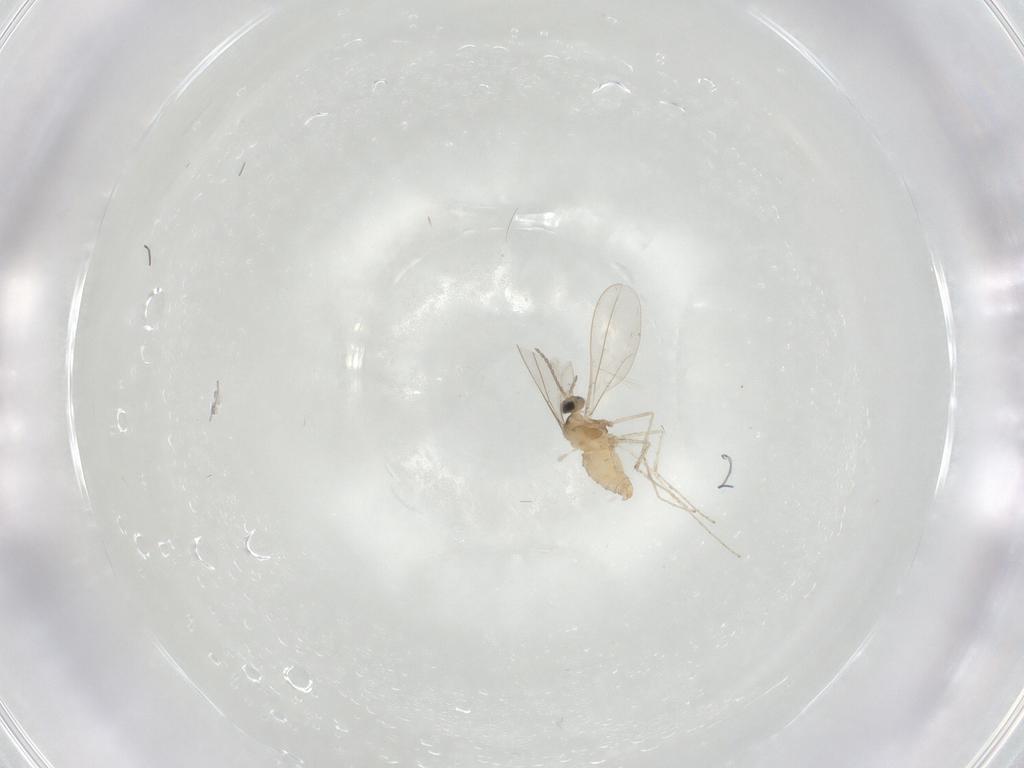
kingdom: Animalia
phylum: Arthropoda
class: Insecta
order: Diptera
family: Cecidomyiidae
